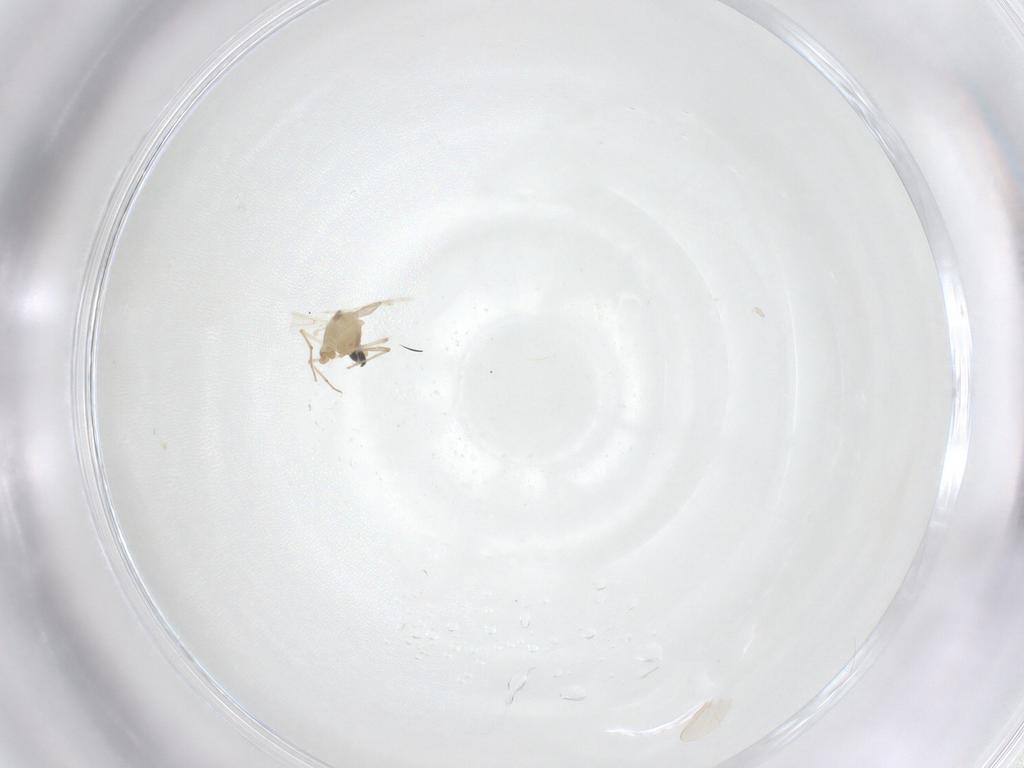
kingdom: Animalia
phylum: Arthropoda
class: Insecta
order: Diptera
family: Chironomidae
